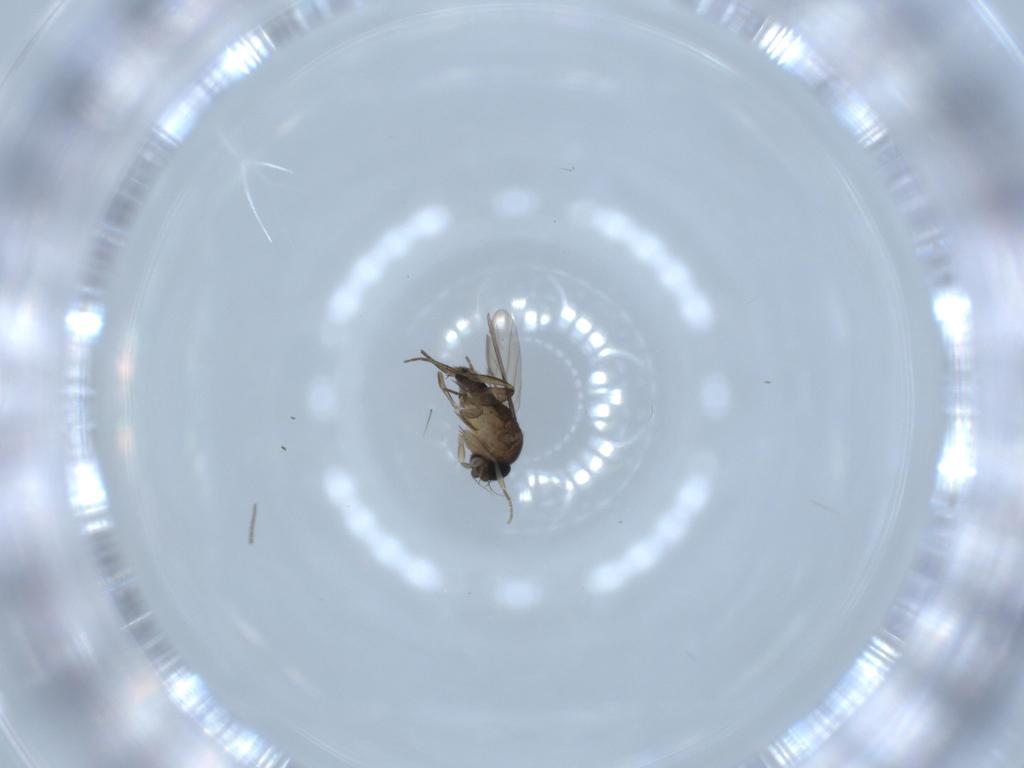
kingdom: Animalia
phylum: Arthropoda
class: Insecta
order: Diptera
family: Phoridae
